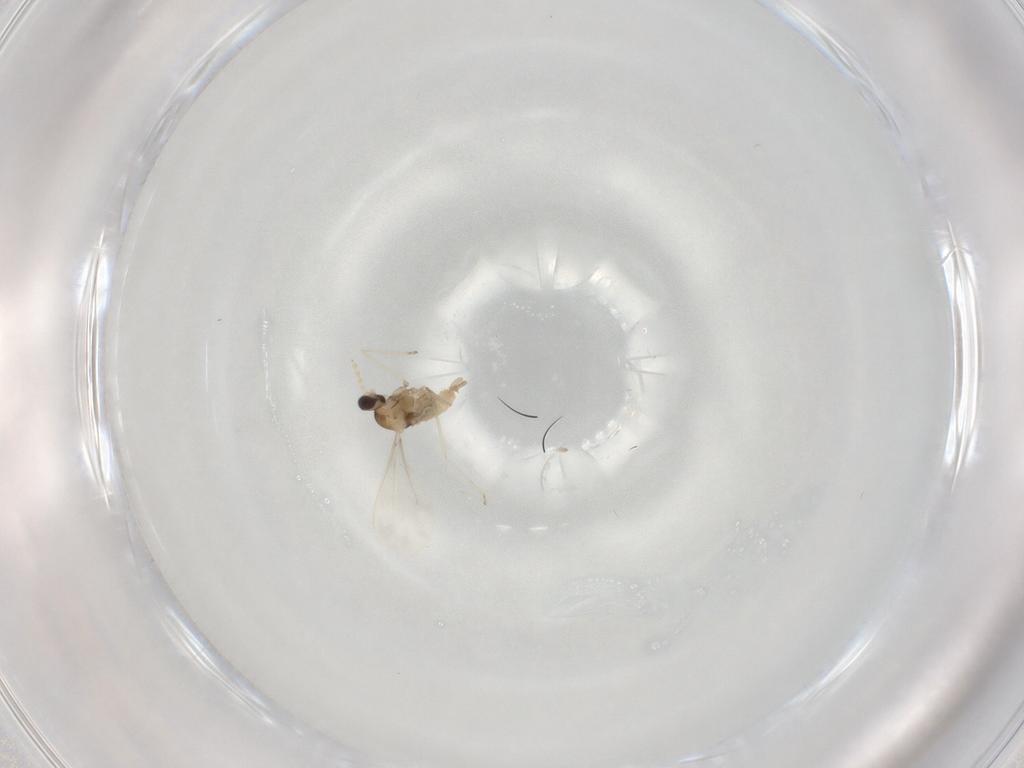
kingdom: Animalia
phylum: Arthropoda
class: Insecta
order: Diptera
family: Cecidomyiidae
